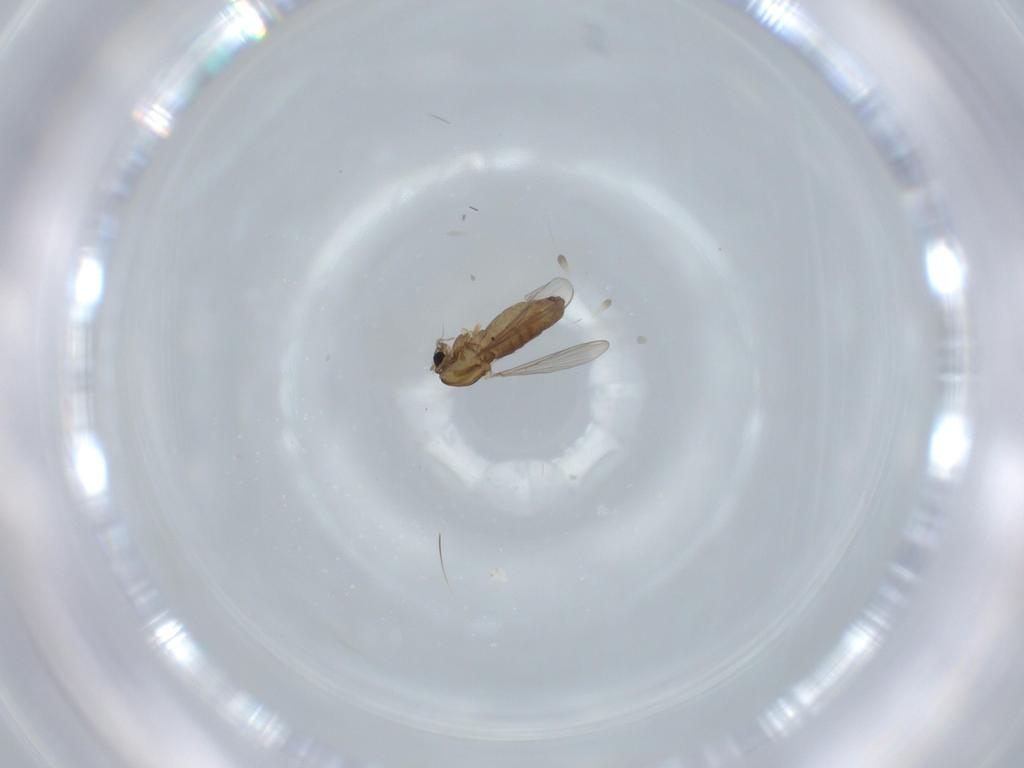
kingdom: Animalia
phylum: Arthropoda
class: Insecta
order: Diptera
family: Chironomidae
